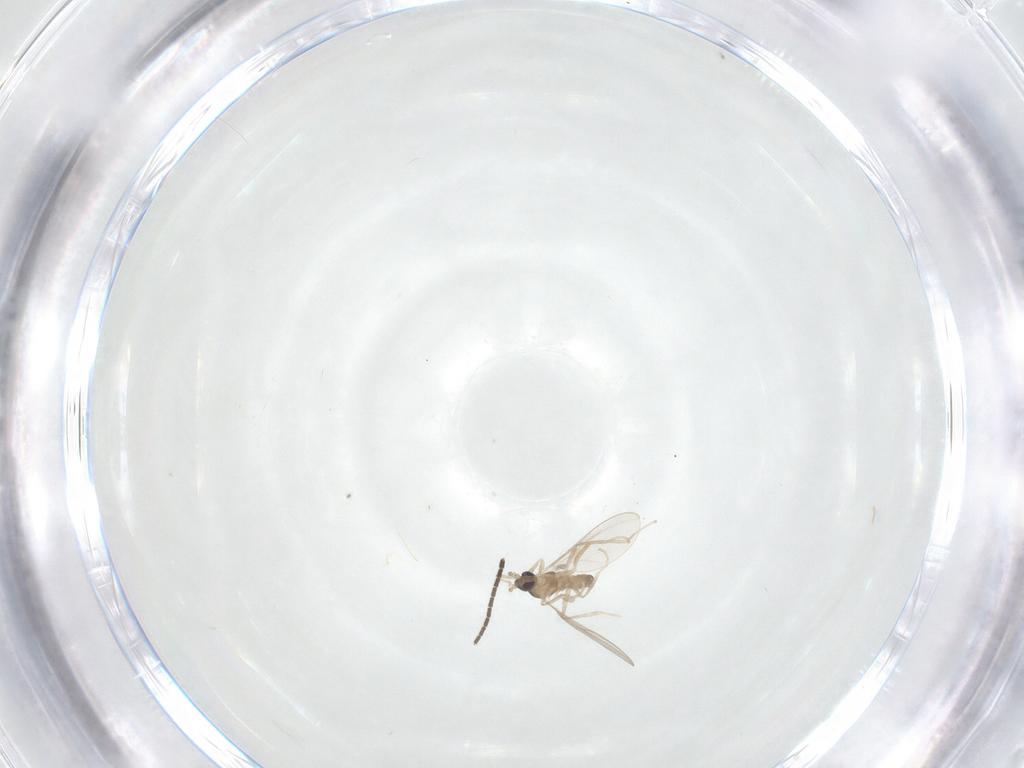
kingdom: Animalia
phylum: Arthropoda
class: Insecta
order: Diptera
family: Sciaridae
